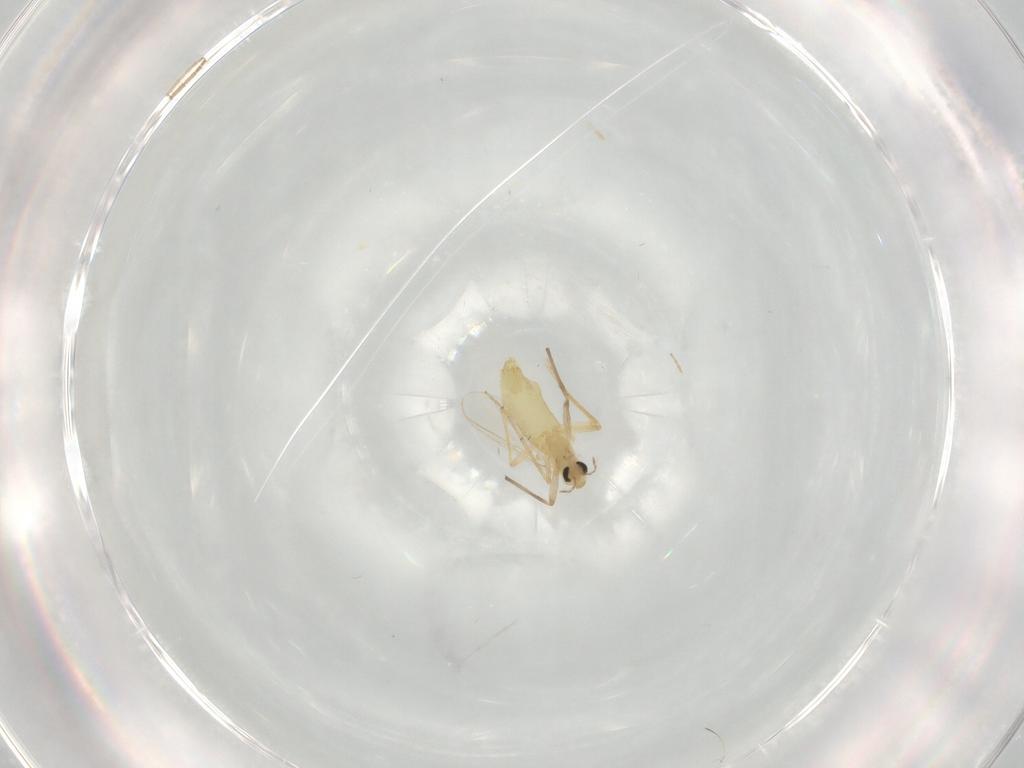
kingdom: Animalia
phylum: Arthropoda
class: Insecta
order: Diptera
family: Chironomidae
